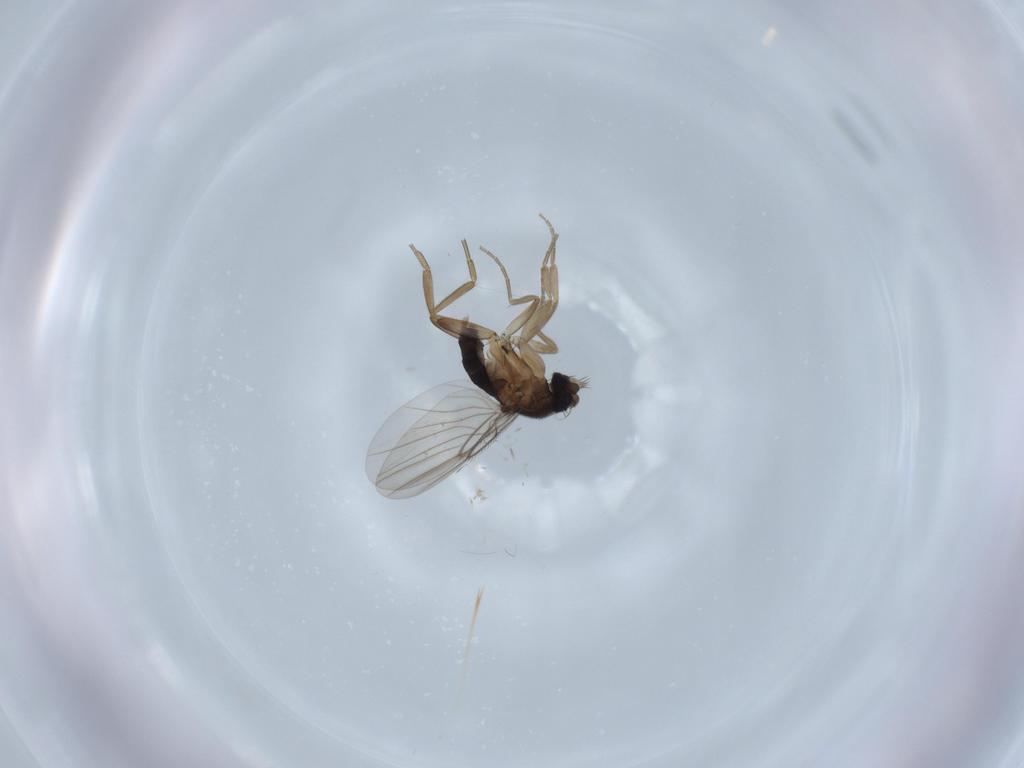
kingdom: Animalia
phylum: Arthropoda
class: Insecta
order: Diptera
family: Phoridae
